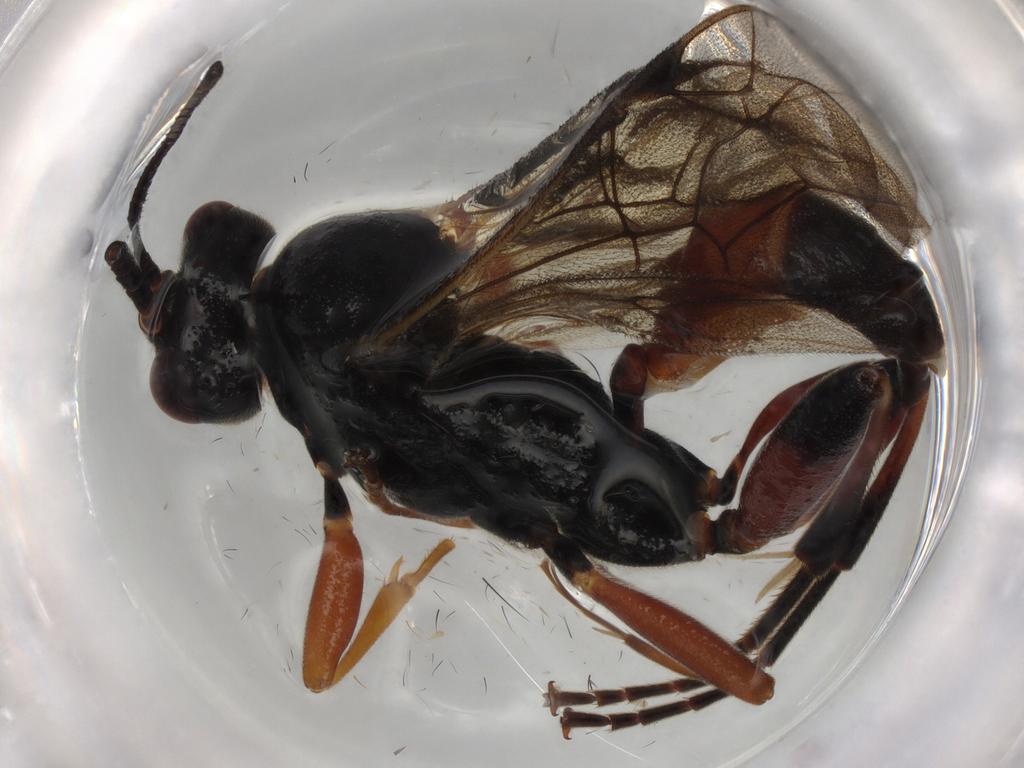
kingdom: Animalia
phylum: Arthropoda
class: Insecta
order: Hymenoptera
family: Ichneumonidae
